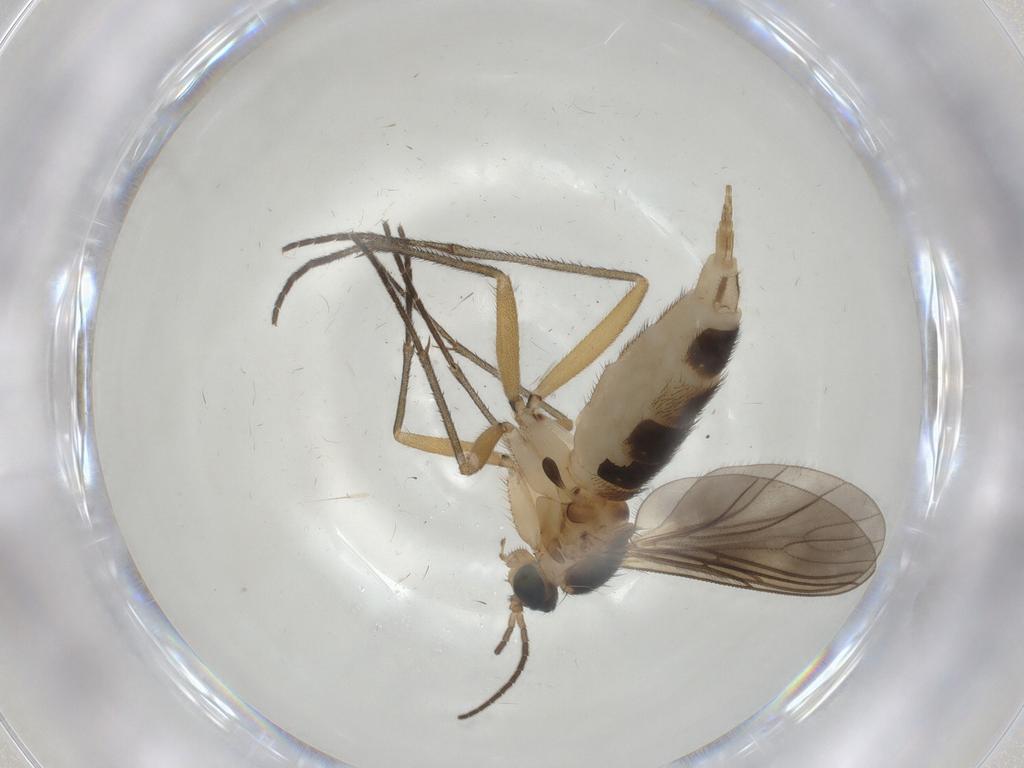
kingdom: Animalia
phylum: Arthropoda
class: Insecta
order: Diptera
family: Sciaridae
